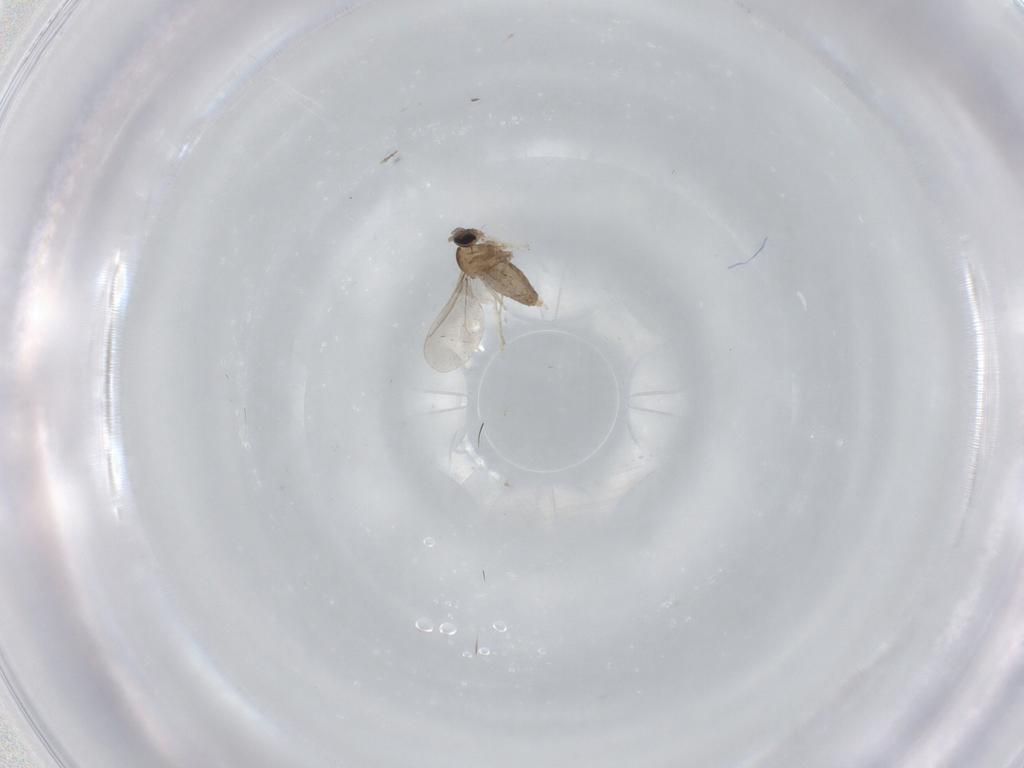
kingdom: Animalia
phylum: Arthropoda
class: Insecta
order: Diptera
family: Cecidomyiidae
